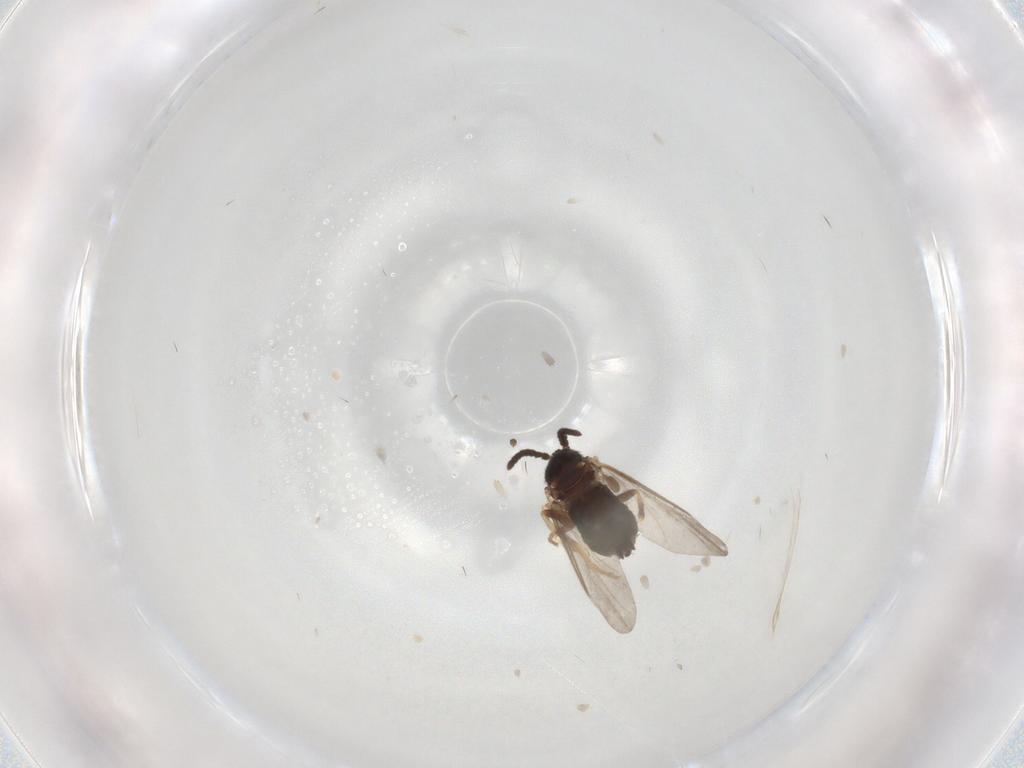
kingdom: Animalia
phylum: Arthropoda
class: Insecta
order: Diptera
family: Scatopsidae
